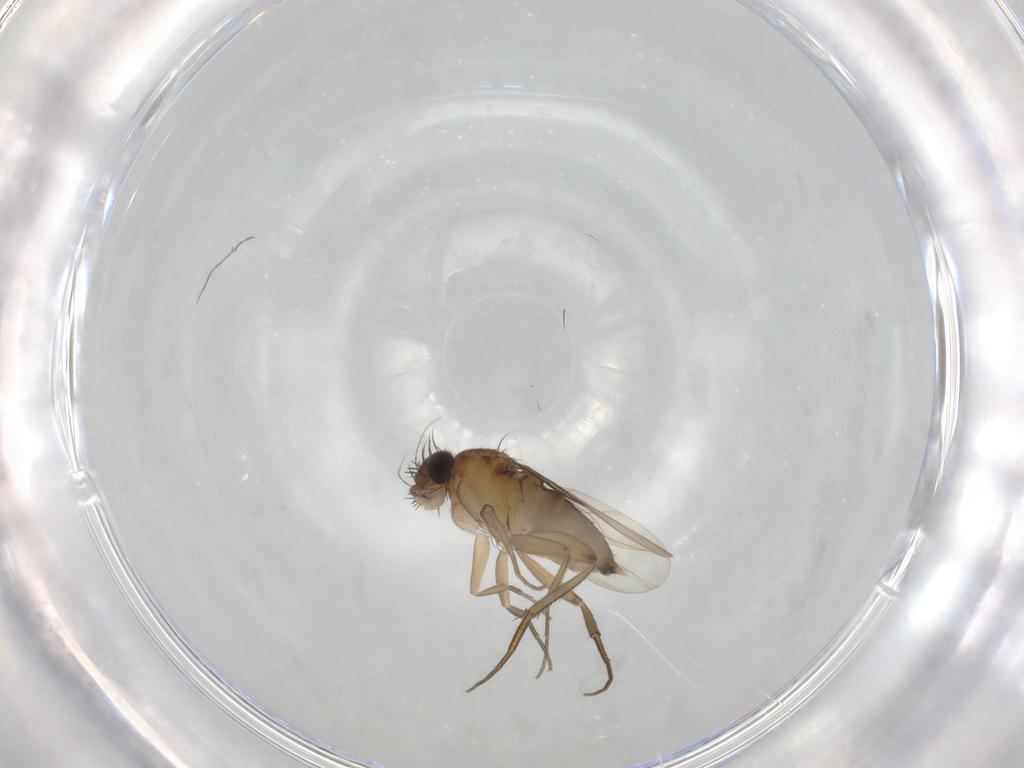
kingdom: Animalia
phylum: Arthropoda
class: Insecta
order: Diptera
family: Phoridae
